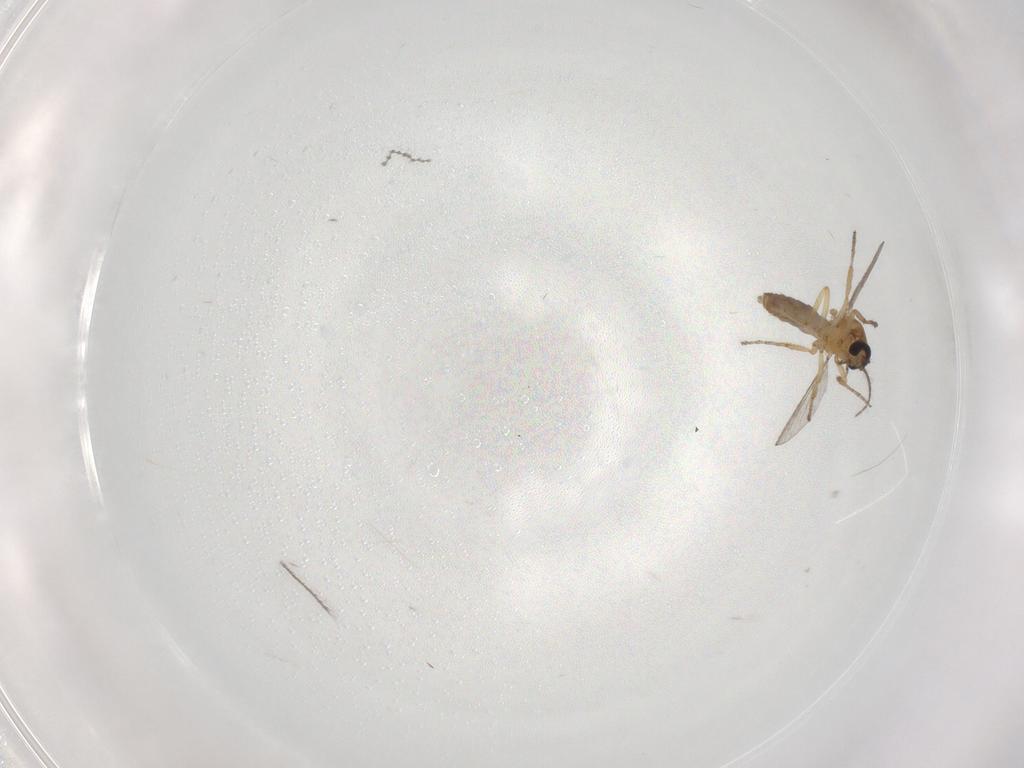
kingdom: Animalia
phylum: Arthropoda
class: Insecta
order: Diptera
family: Cecidomyiidae
